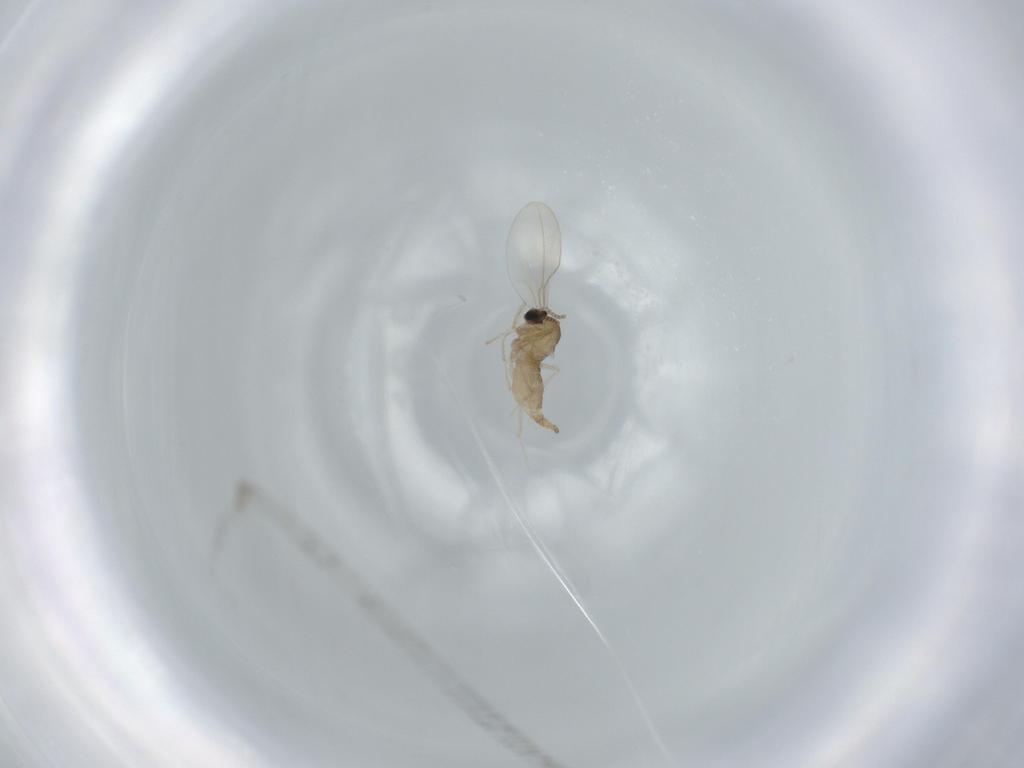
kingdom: Animalia
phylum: Arthropoda
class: Insecta
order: Diptera
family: Cecidomyiidae
